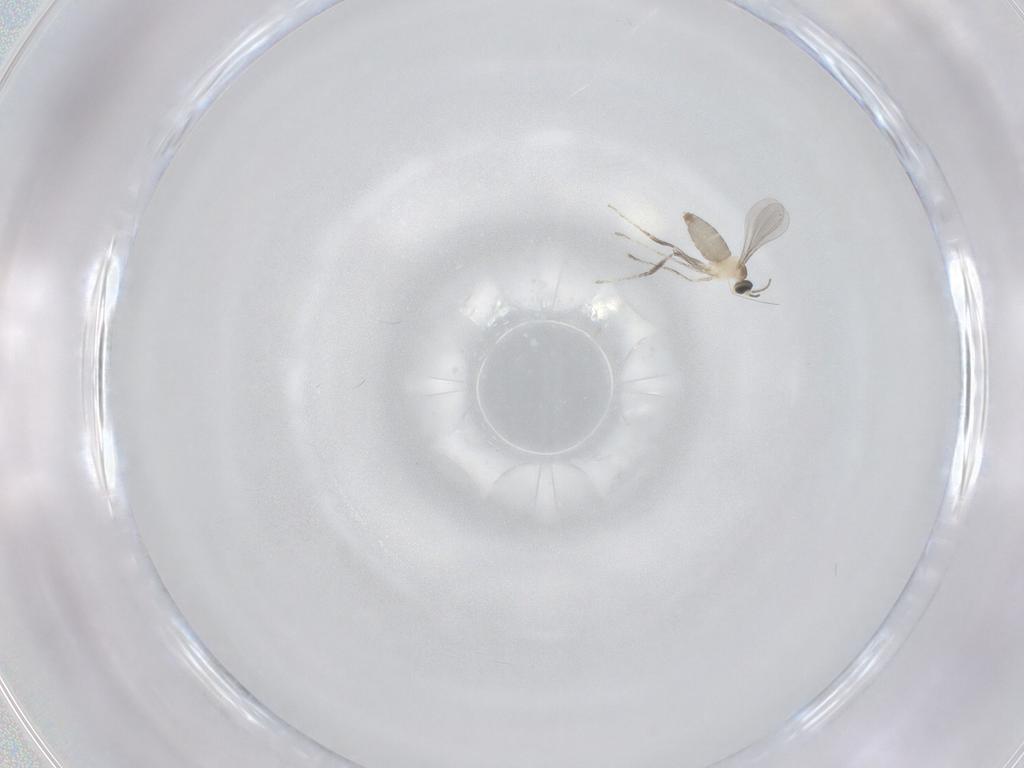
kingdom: Animalia
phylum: Arthropoda
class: Insecta
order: Diptera
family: Cecidomyiidae
